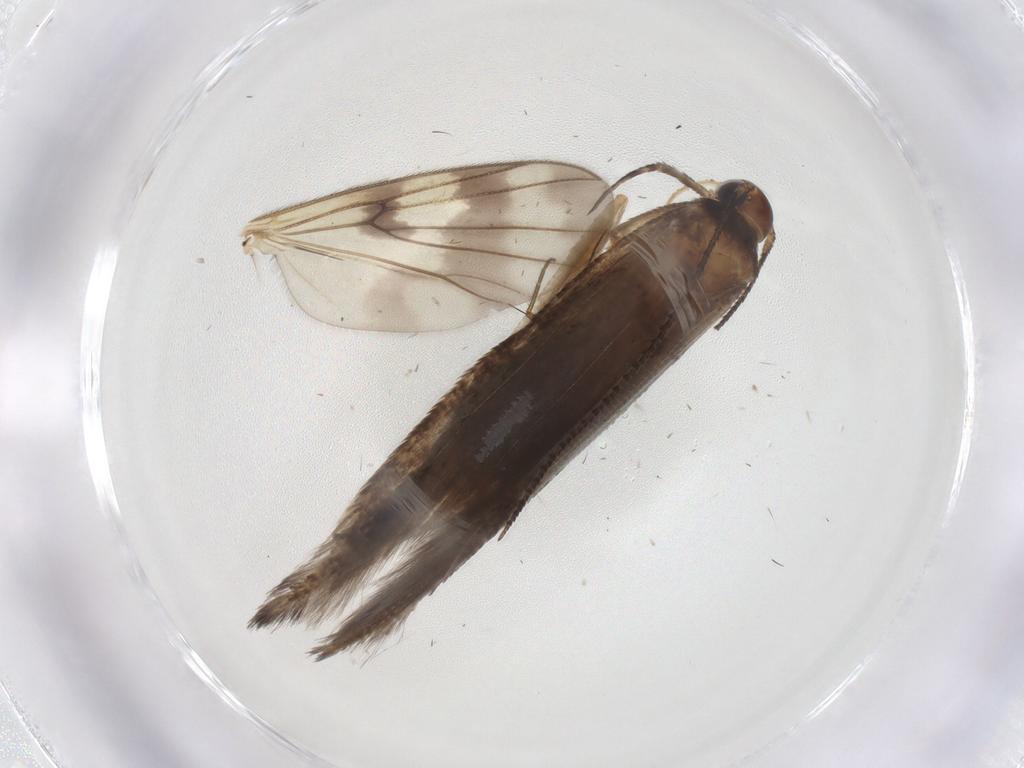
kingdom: Animalia
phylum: Arthropoda
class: Insecta
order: Lepidoptera
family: Gelechiidae
